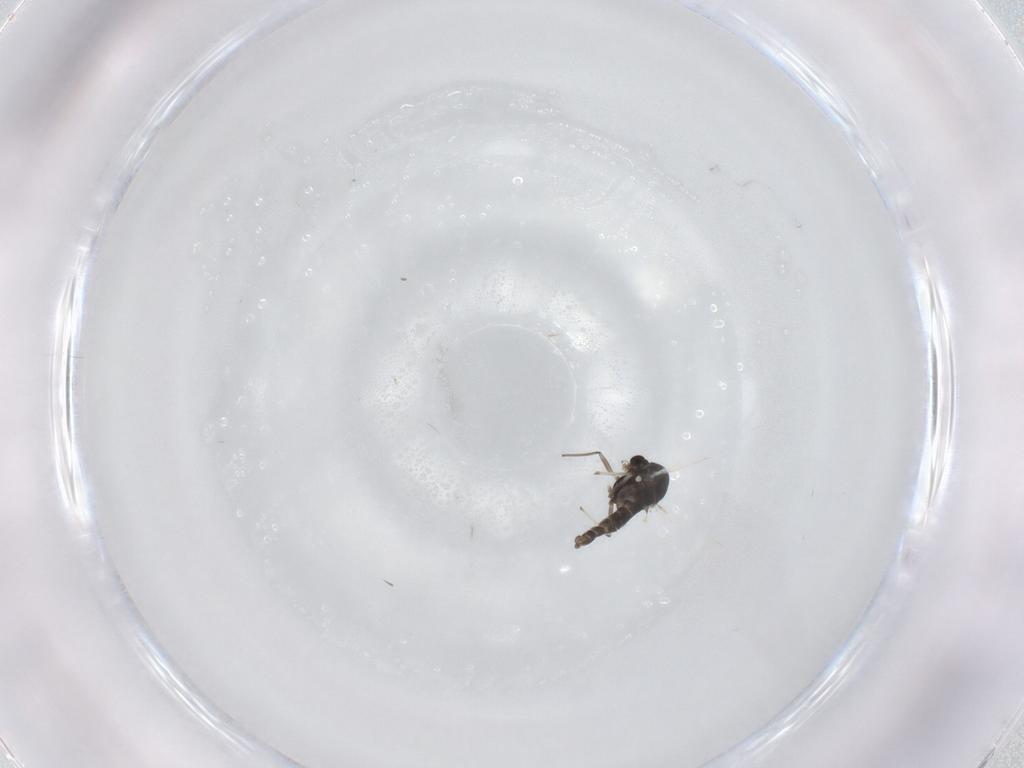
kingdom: Animalia
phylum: Arthropoda
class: Insecta
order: Diptera
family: Chironomidae
